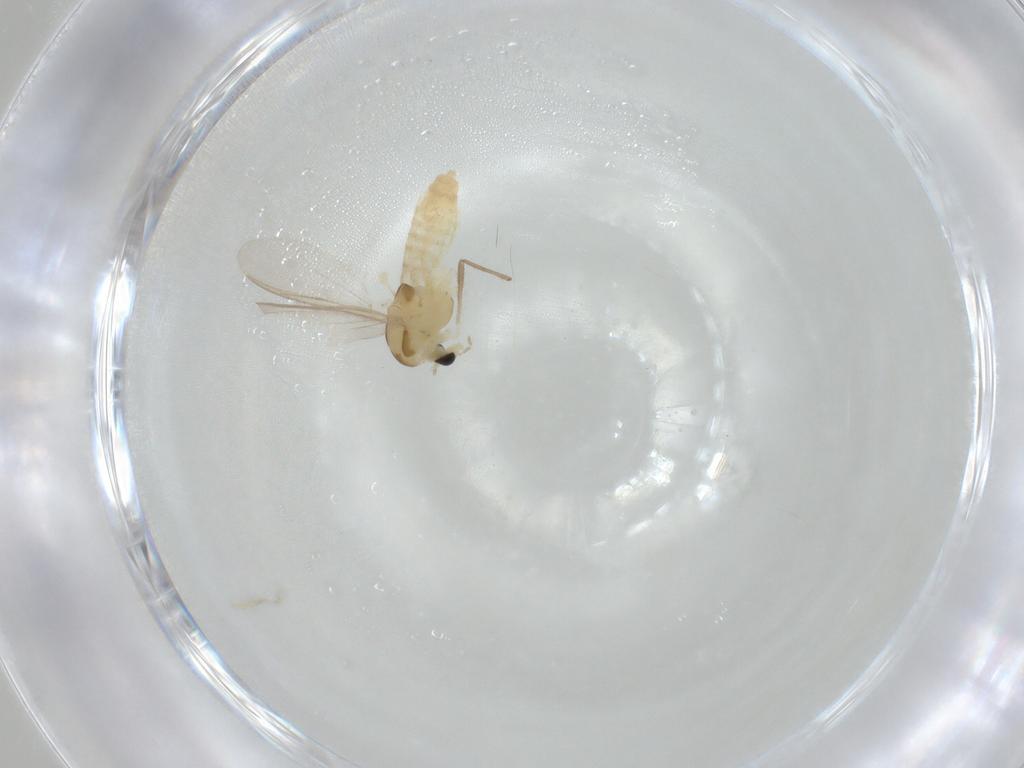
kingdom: Animalia
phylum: Arthropoda
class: Insecta
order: Diptera
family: Chironomidae
